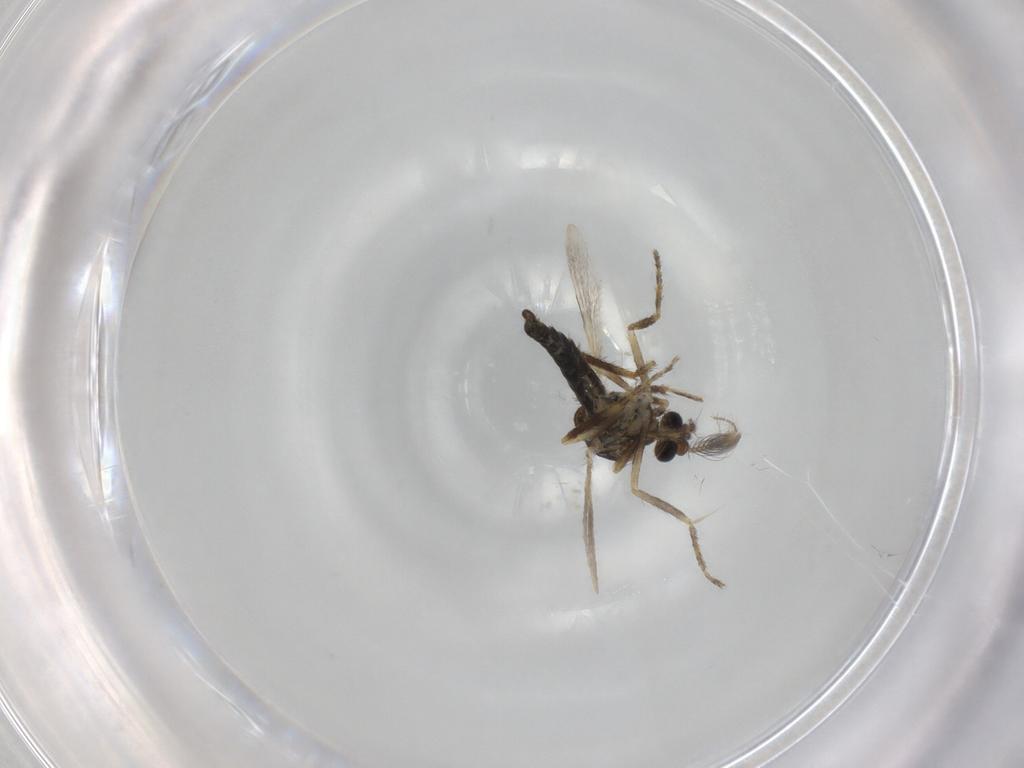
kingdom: Animalia
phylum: Arthropoda
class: Insecta
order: Diptera
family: Ceratopogonidae
